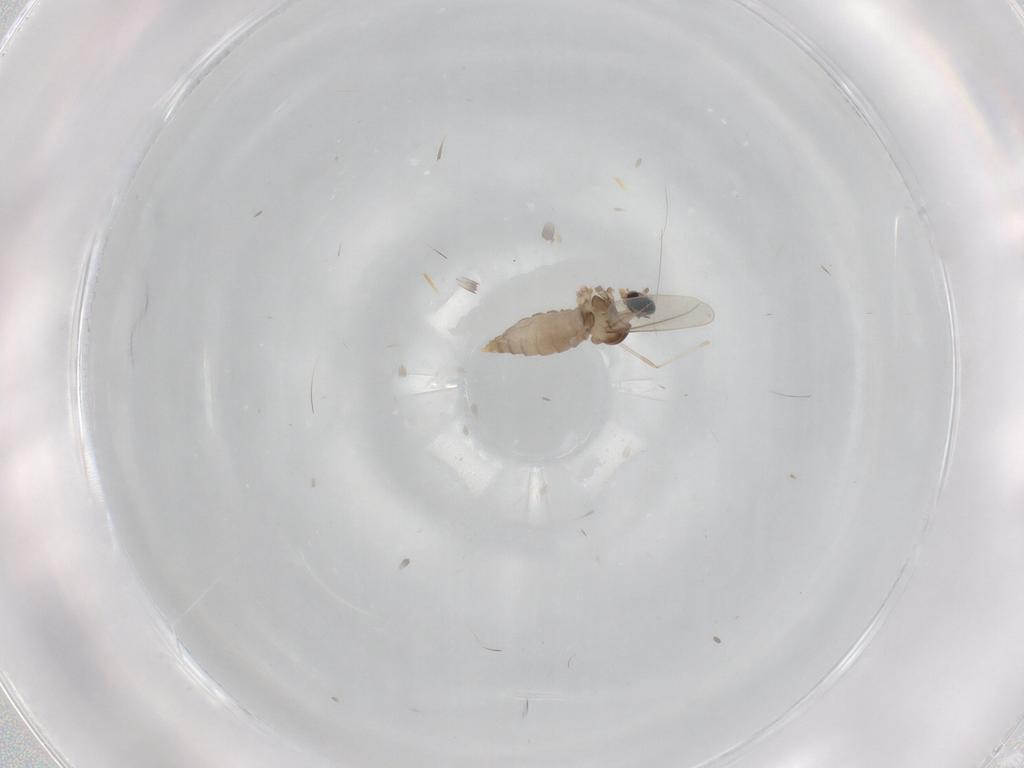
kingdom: Animalia
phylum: Arthropoda
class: Insecta
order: Diptera
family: Cecidomyiidae
